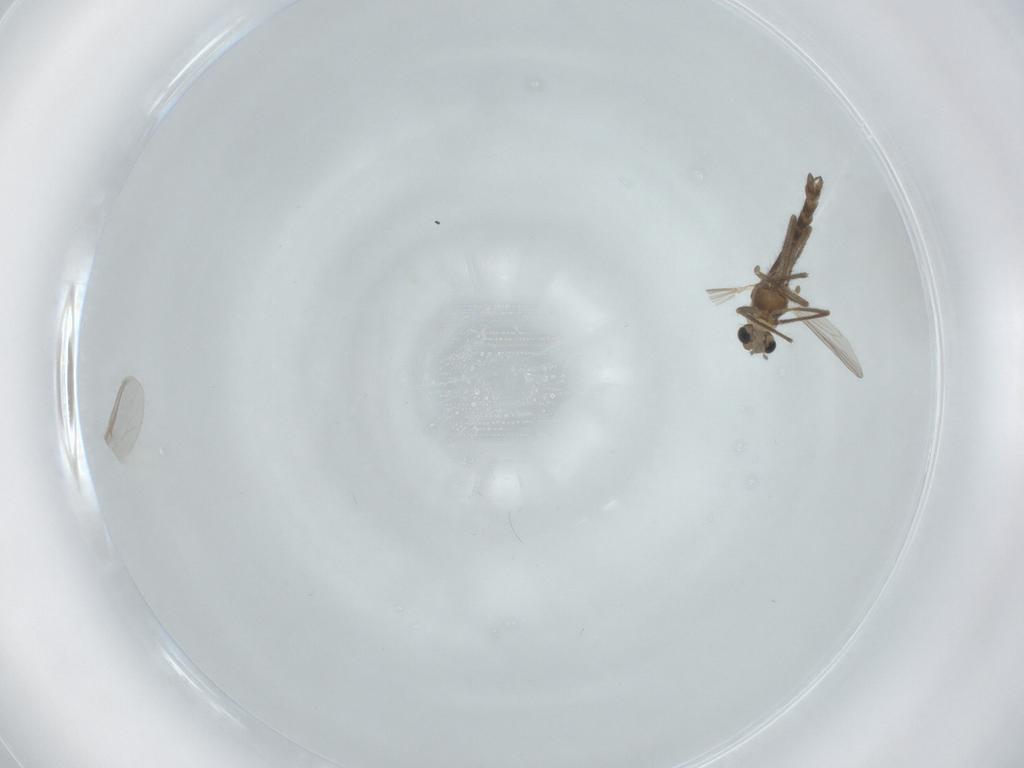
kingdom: Animalia
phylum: Arthropoda
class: Insecta
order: Diptera
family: Chironomidae
